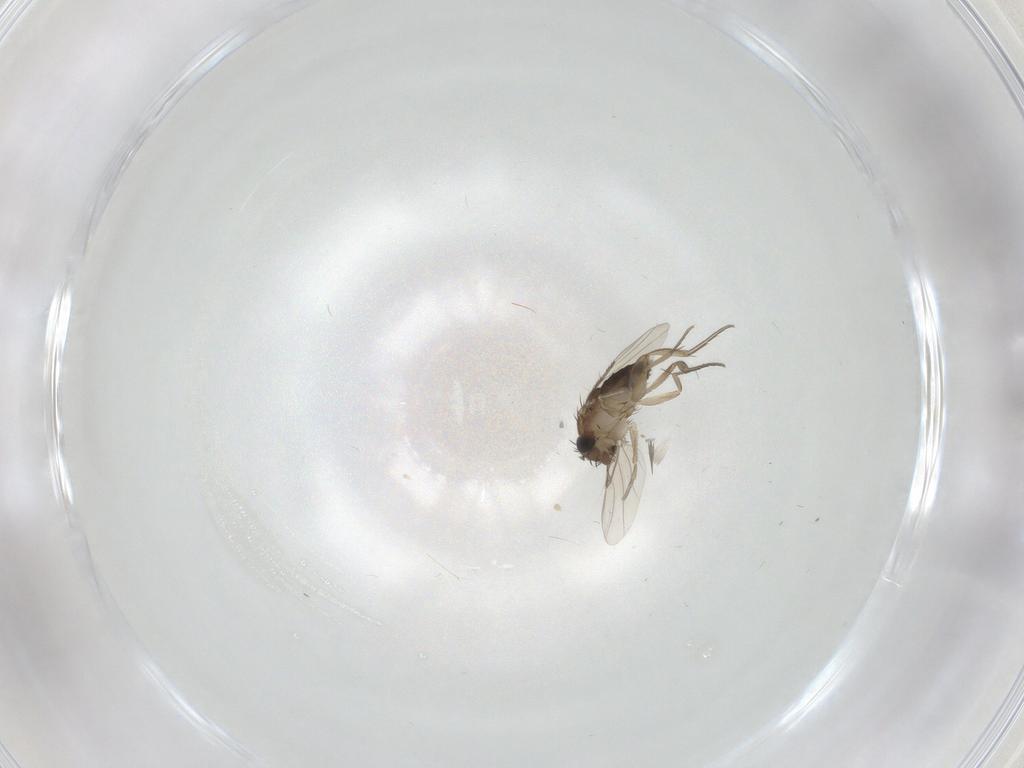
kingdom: Animalia
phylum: Arthropoda
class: Insecta
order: Diptera
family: Phoridae
